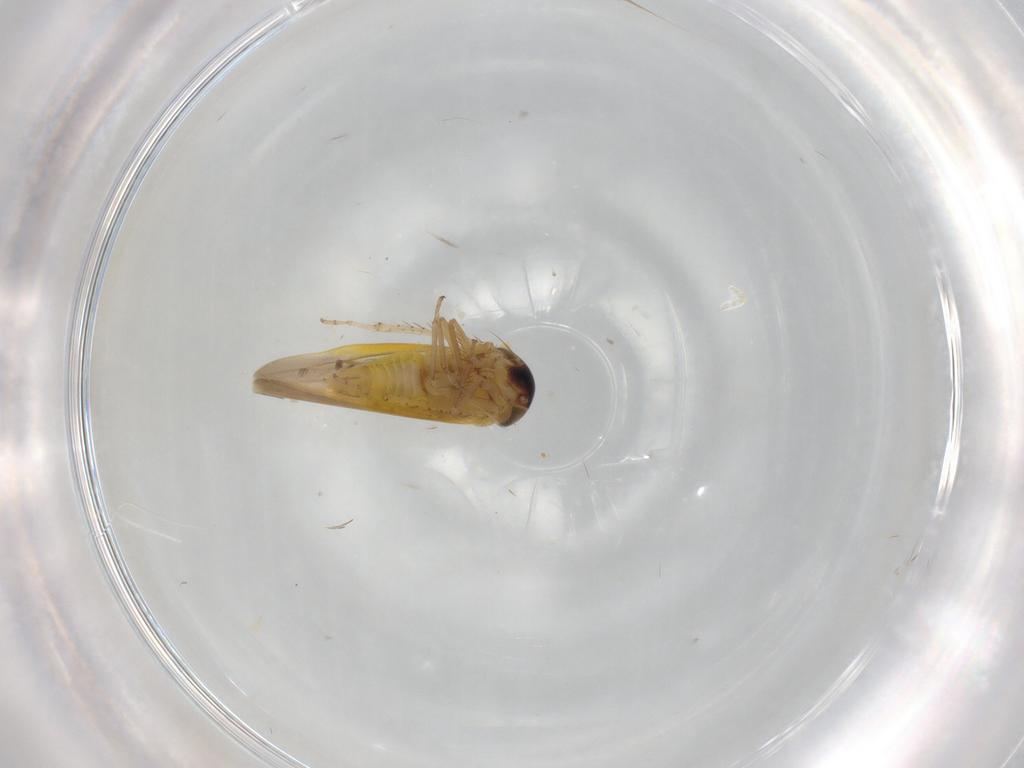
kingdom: Animalia
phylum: Arthropoda
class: Insecta
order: Hemiptera
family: Cicadellidae
